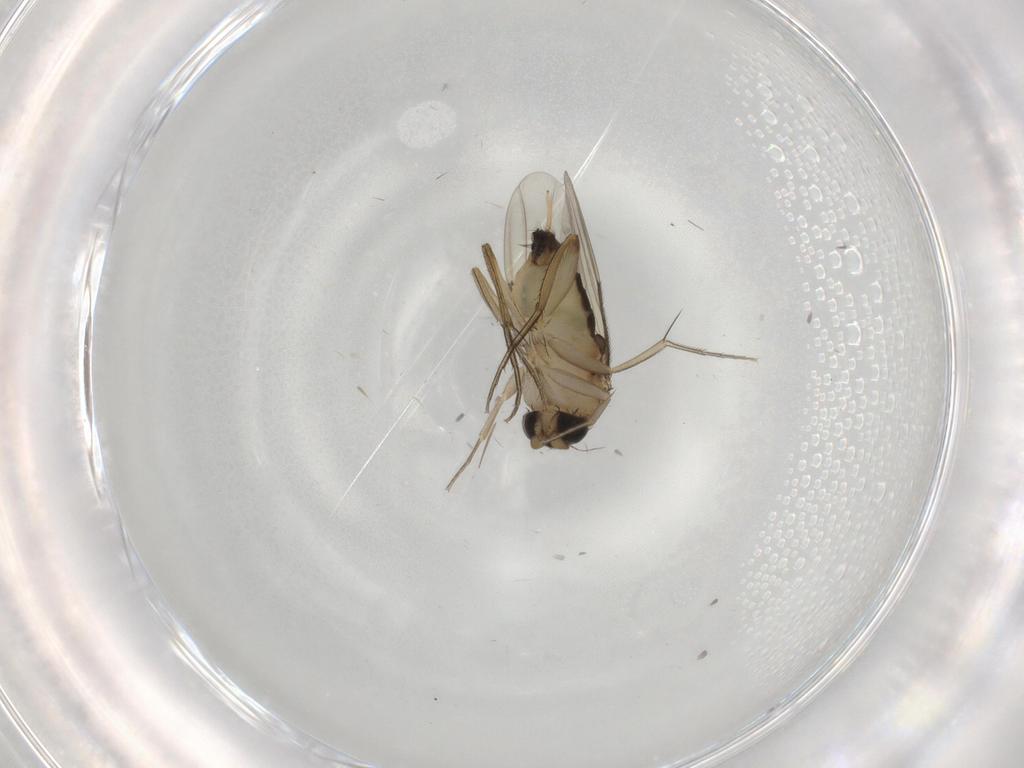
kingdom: Animalia
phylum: Arthropoda
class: Insecta
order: Diptera
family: Phoridae
